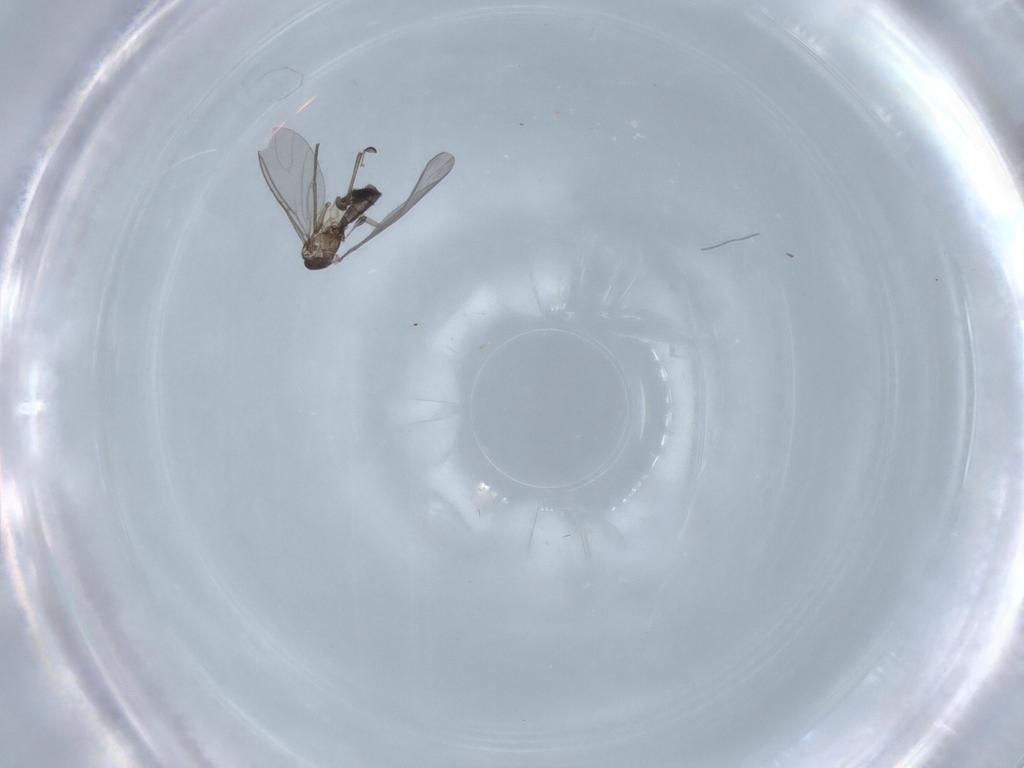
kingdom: Animalia
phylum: Arthropoda
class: Insecta
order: Diptera
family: Sciaridae
